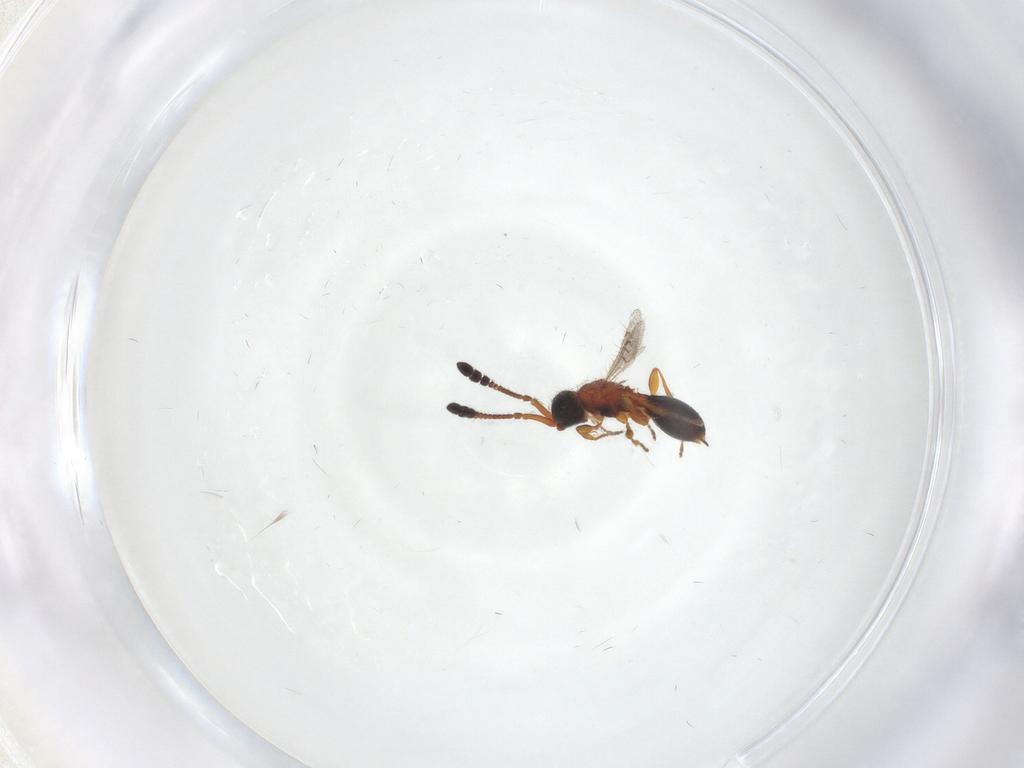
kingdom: Animalia
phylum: Arthropoda
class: Insecta
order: Hymenoptera
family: Diapriidae
